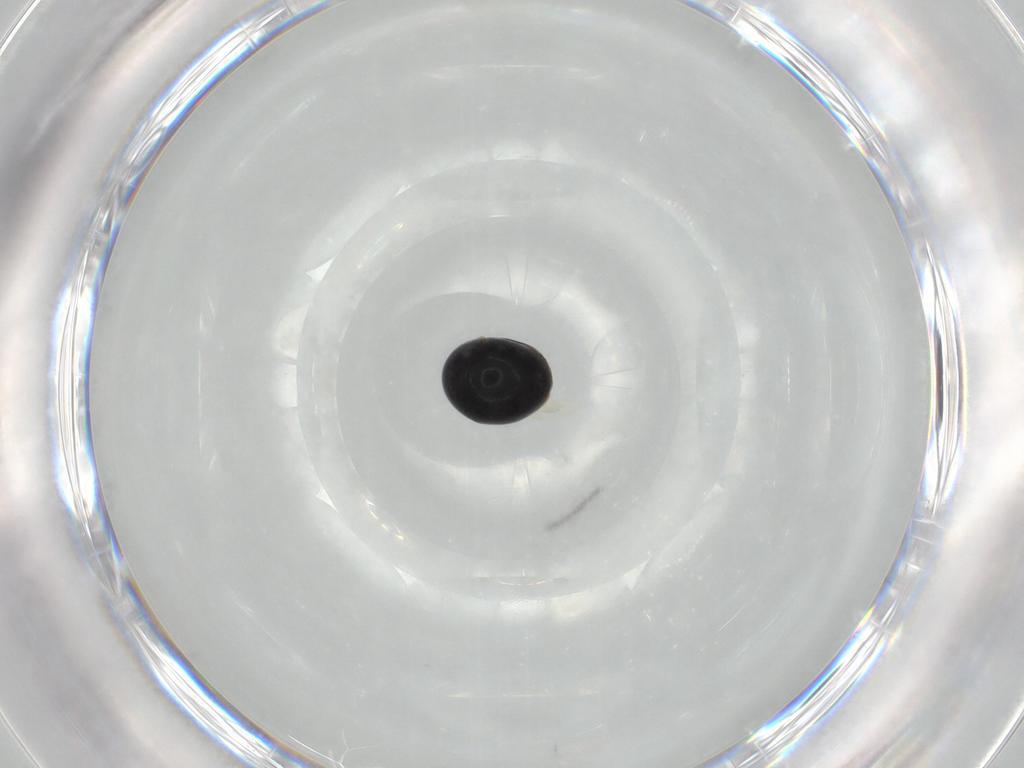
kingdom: Animalia
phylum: Arthropoda
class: Insecta
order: Coleoptera
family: Cybocephalidae
